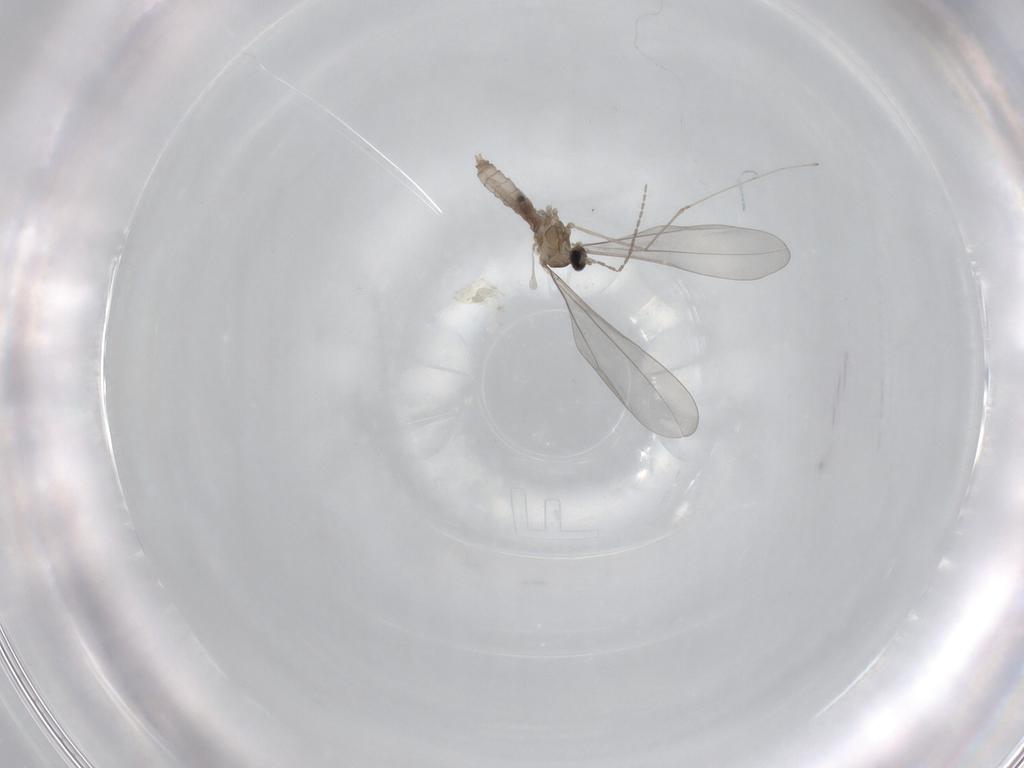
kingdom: Animalia
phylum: Arthropoda
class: Insecta
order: Diptera
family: Cecidomyiidae
